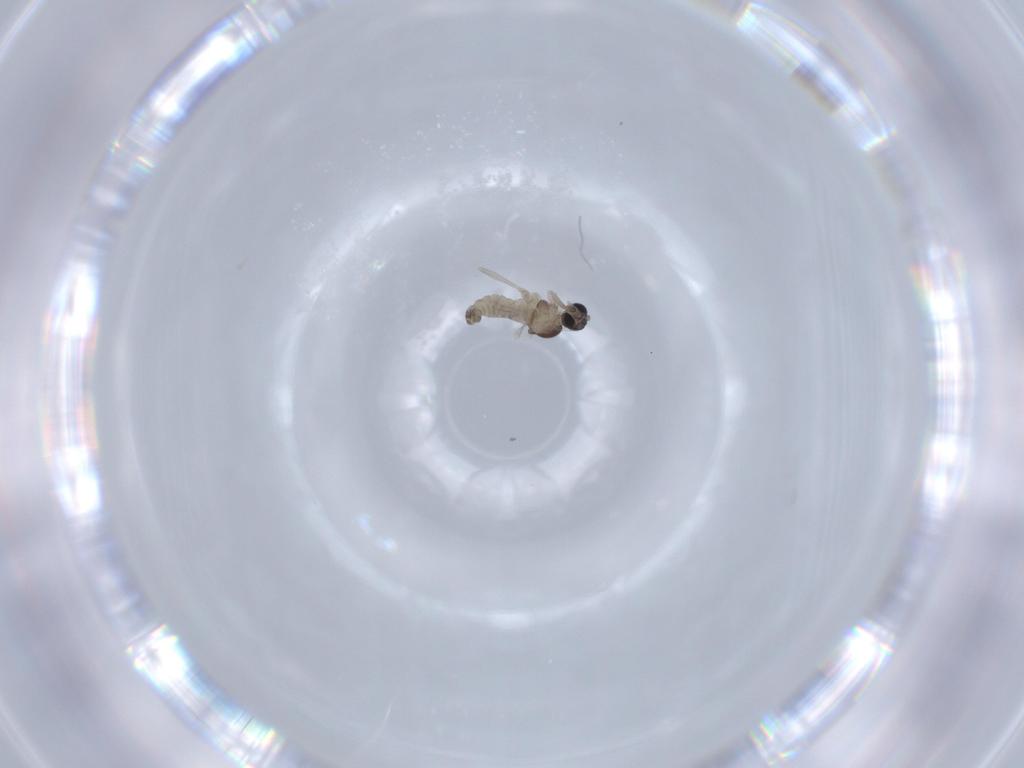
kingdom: Animalia
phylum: Arthropoda
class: Insecta
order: Diptera
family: Cecidomyiidae
